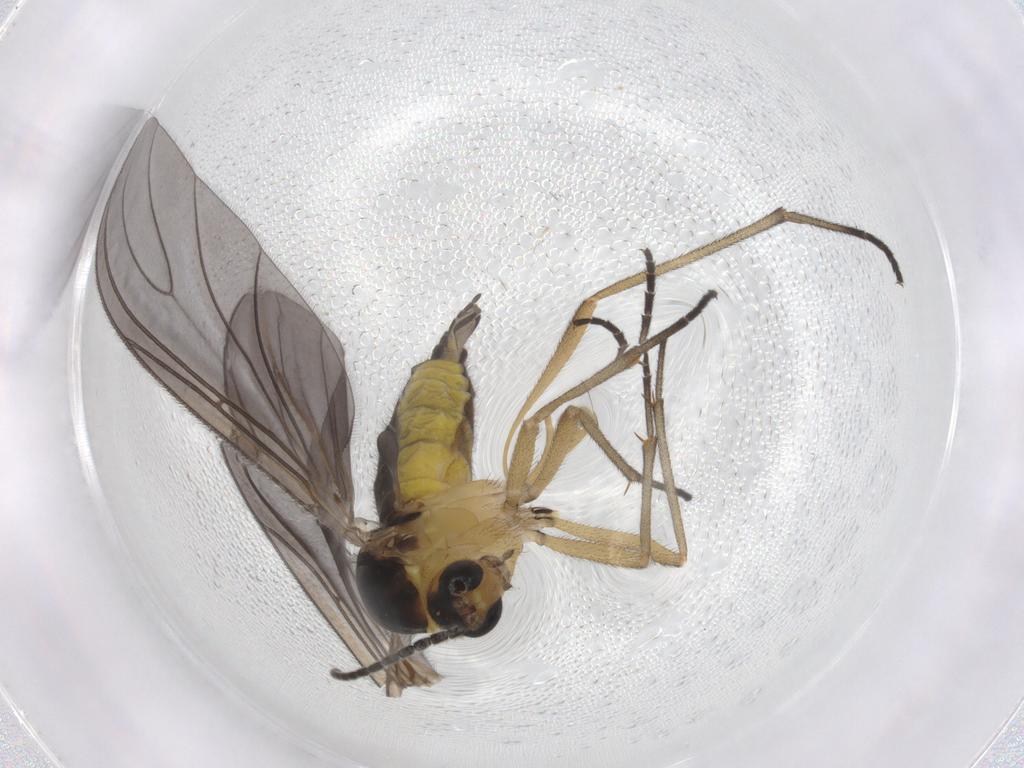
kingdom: Animalia
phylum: Arthropoda
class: Insecta
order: Diptera
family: Sciaridae
